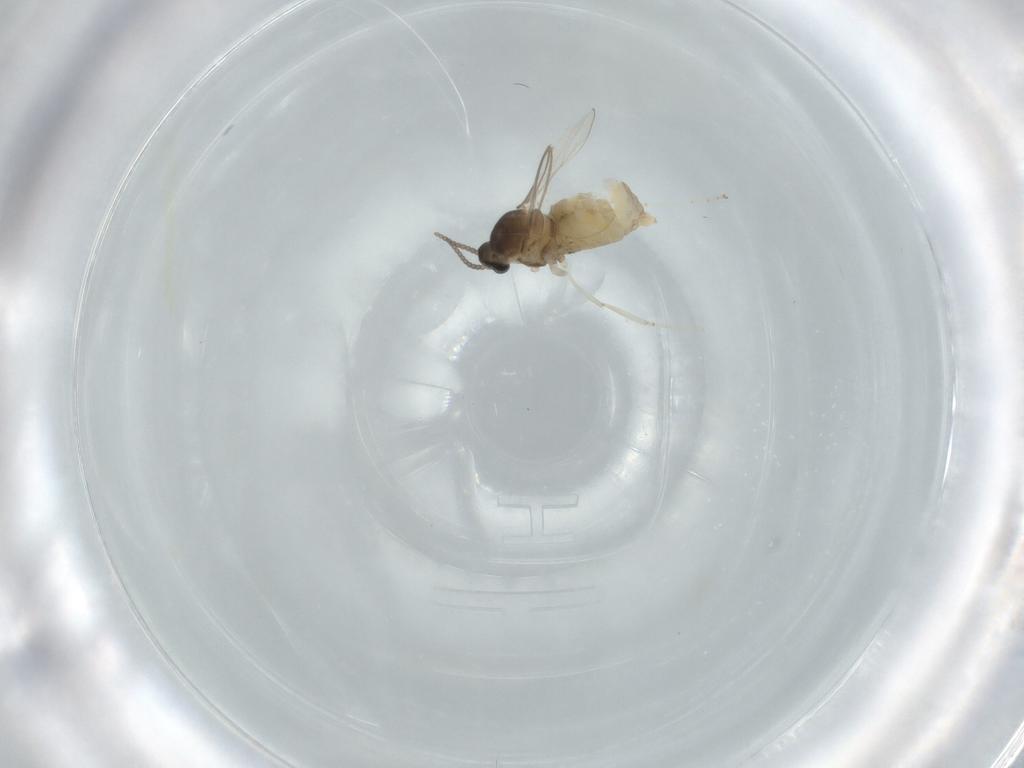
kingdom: Animalia
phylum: Arthropoda
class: Insecta
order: Diptera
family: Cecidomyiidae
